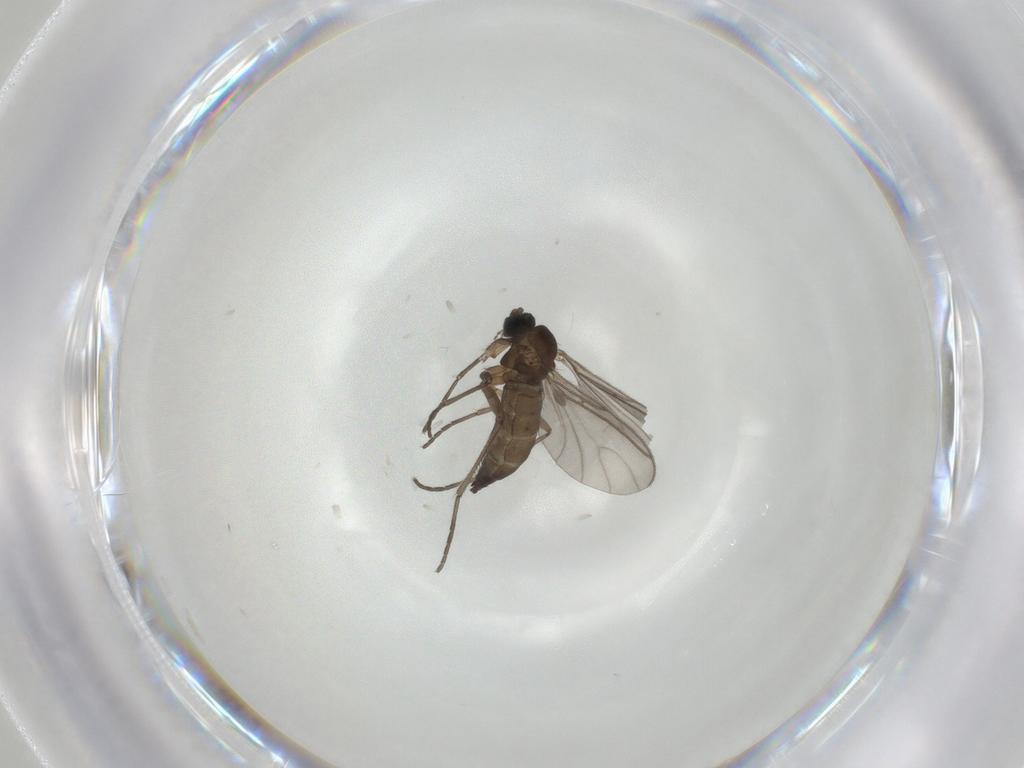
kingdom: Animalia
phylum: Arthropoda
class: Insecta
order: Diptera
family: Sciaridae
